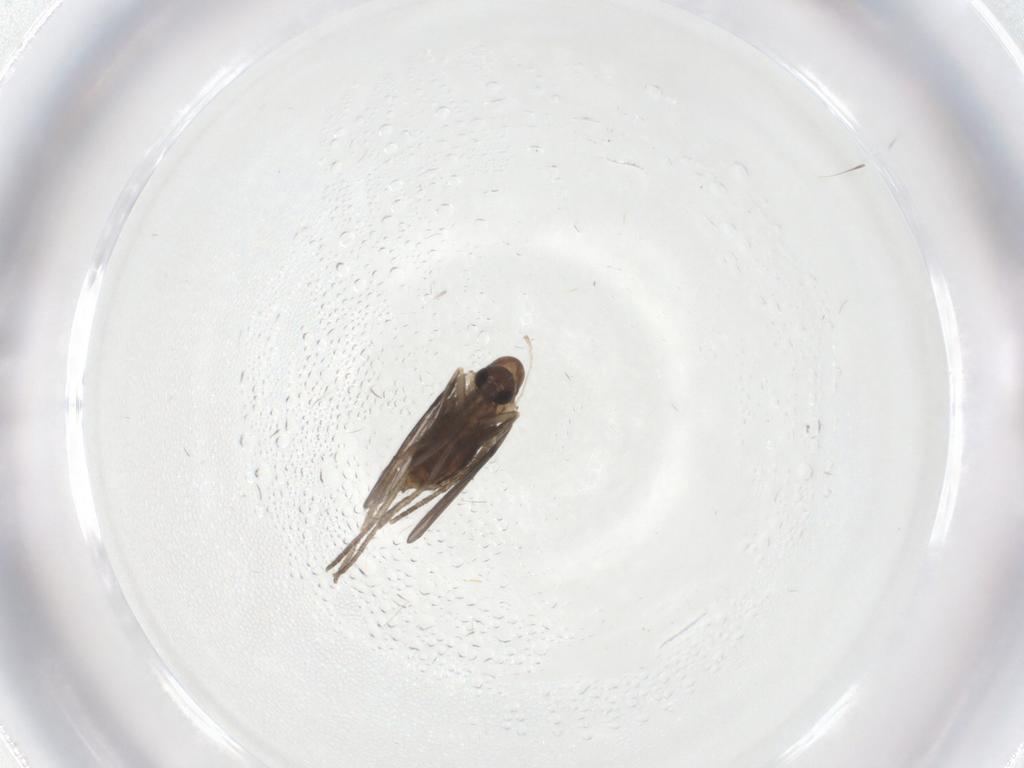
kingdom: Animalia
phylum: Arthropoda
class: Insecta
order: Diptera
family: Psychodidae
